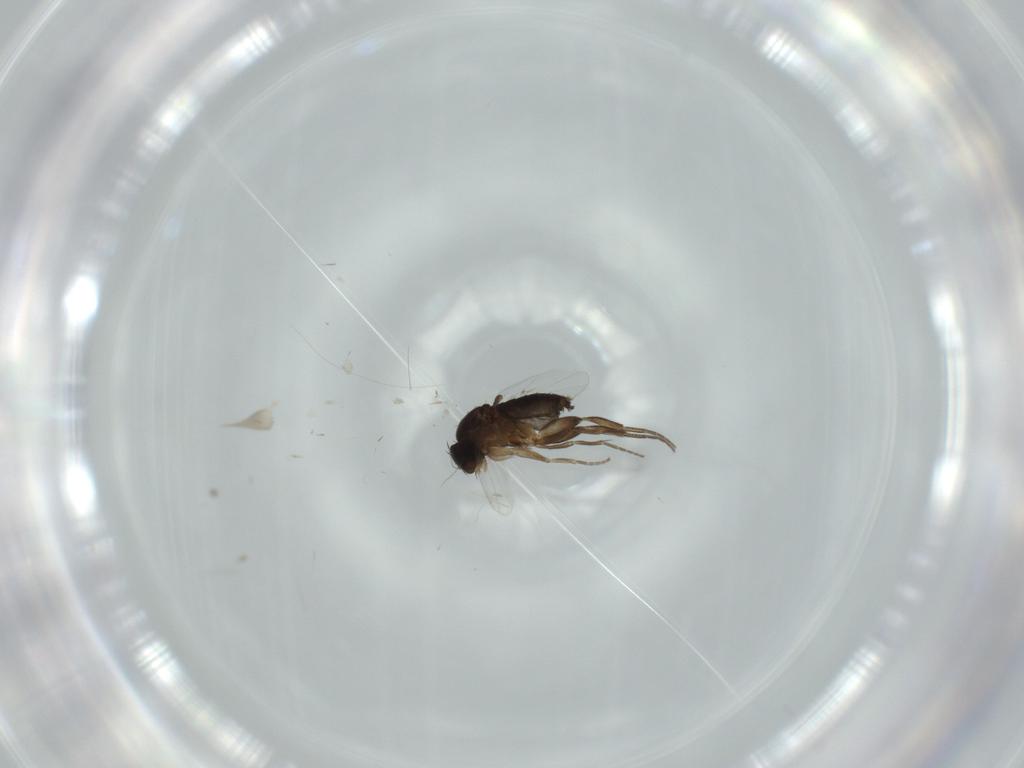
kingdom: Animalia
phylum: Arthropoda
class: Insecta
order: Diptera
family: Phoridae
